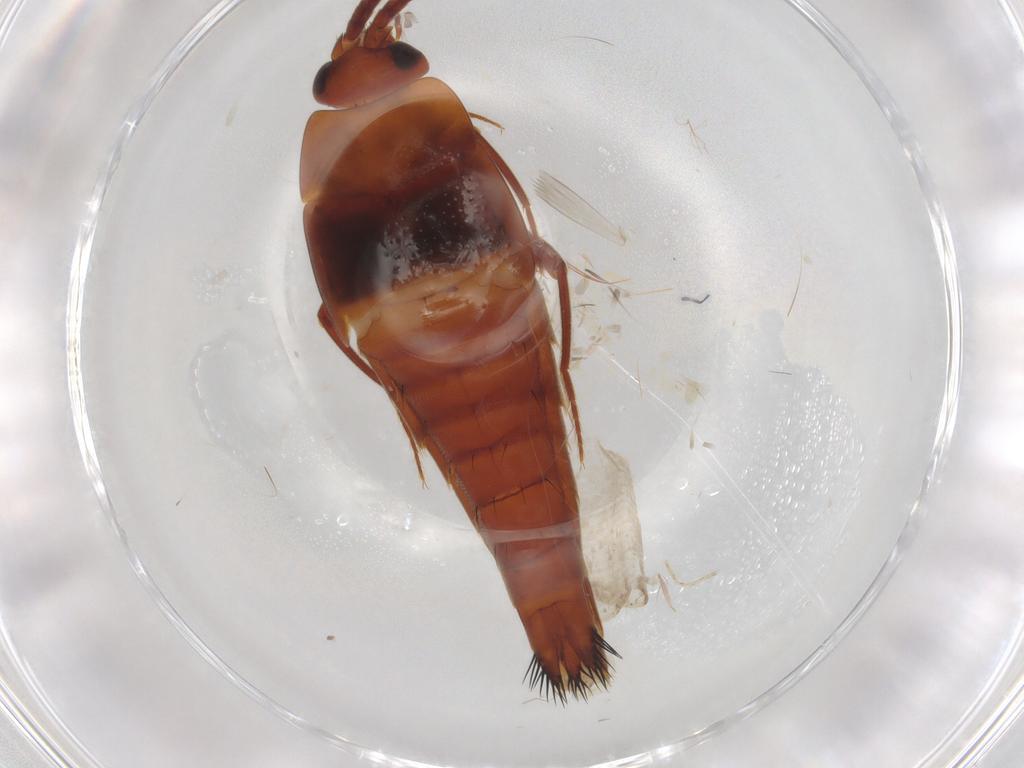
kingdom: Animalia
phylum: Arthropoda
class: Insecta
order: Coleoptera
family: Staphylinidae
